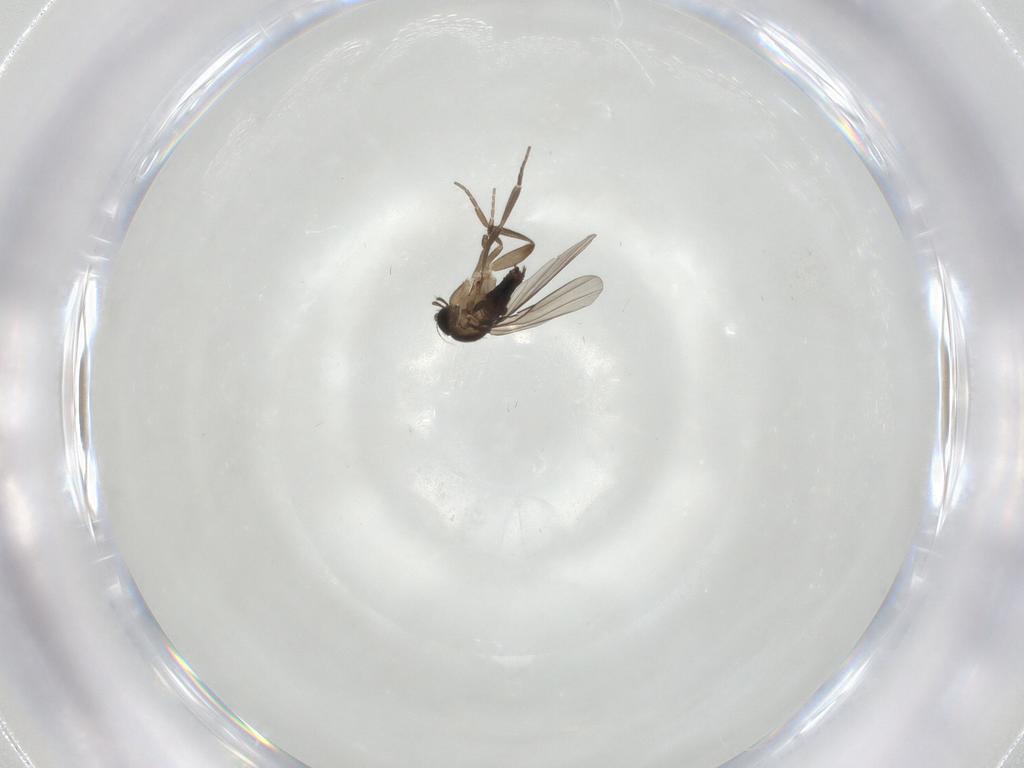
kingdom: Animalia
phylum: Arthropoda
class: Insecta
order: Diptera
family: Phoridae
